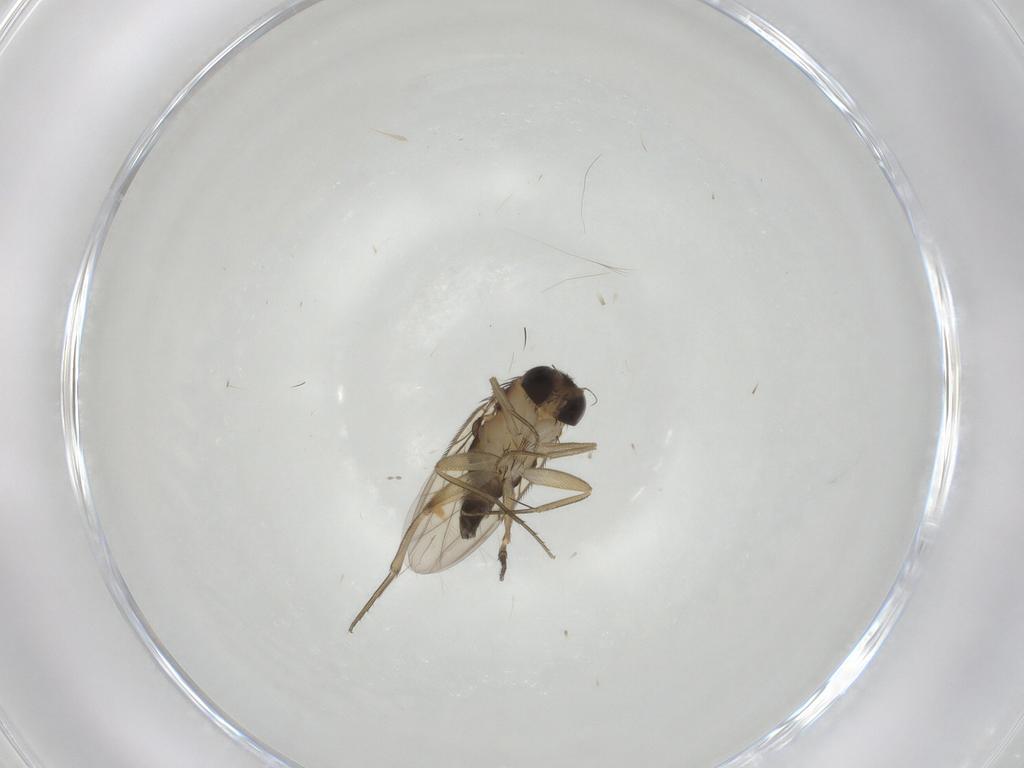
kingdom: Animalia
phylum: Arthropoda
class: Insecta
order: Diptera
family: Phoridae
